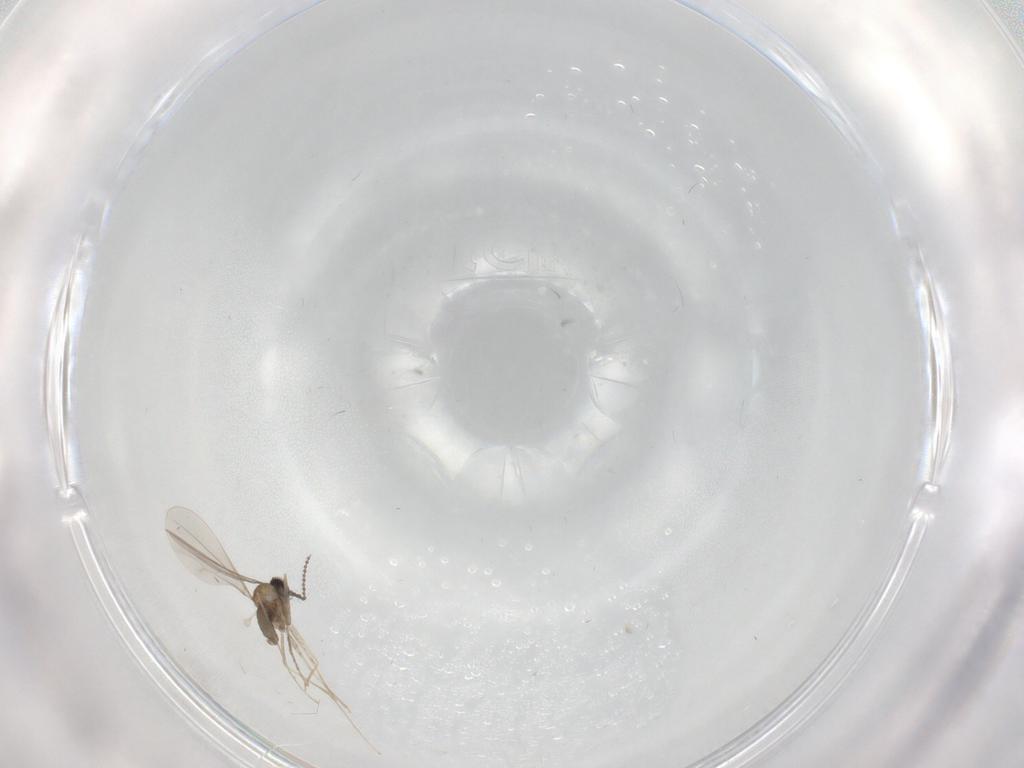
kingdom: Animalia
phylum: Arthropoda
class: Insecta
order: Diptera
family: Cecidomyiidae
